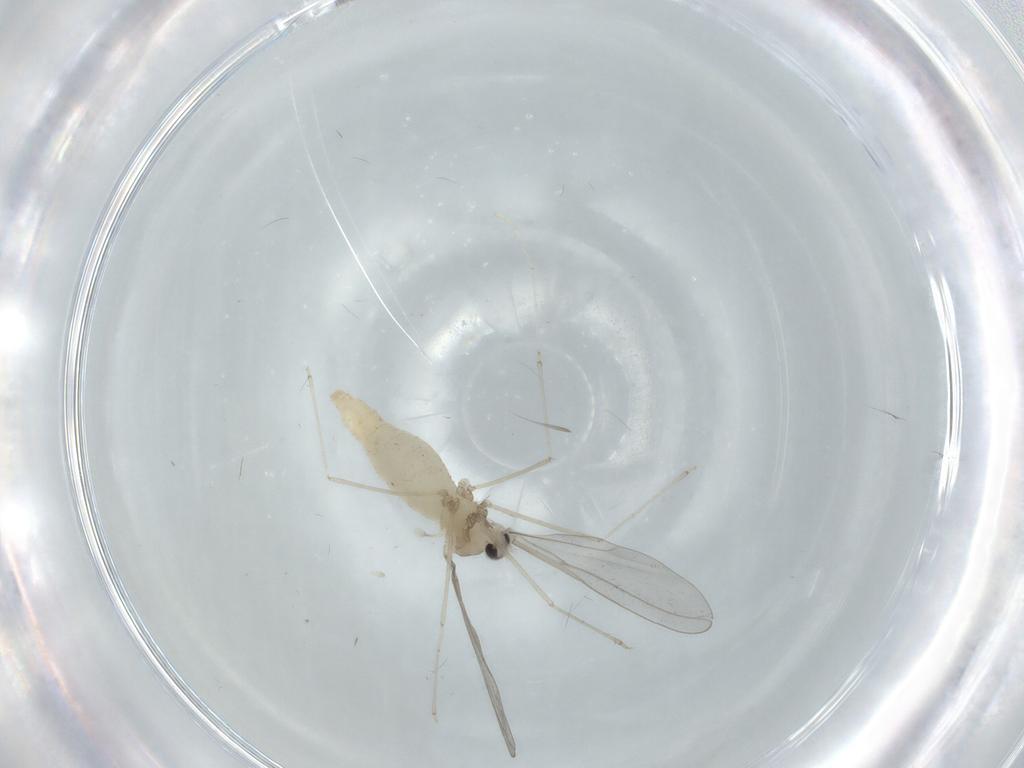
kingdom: Animalia
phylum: Arthropoda
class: Insecta
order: Diptera
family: Cecidomyiidae
